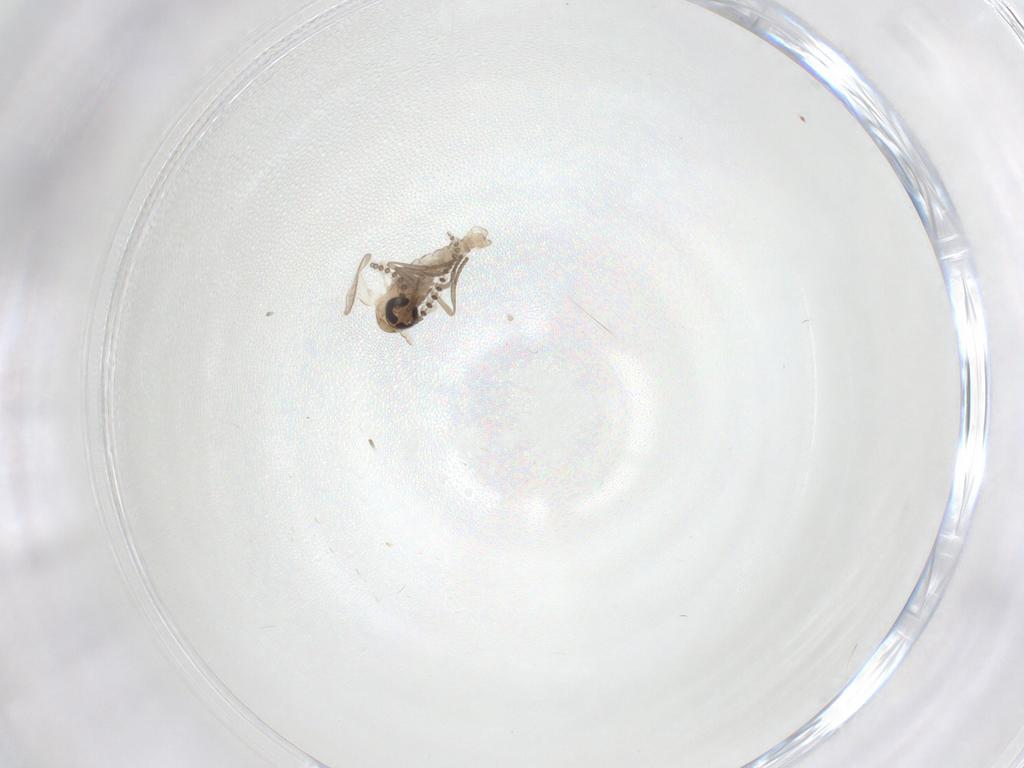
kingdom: Animalia
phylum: Arthropoda
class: Insecta
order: Diptera
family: Psychodidae
